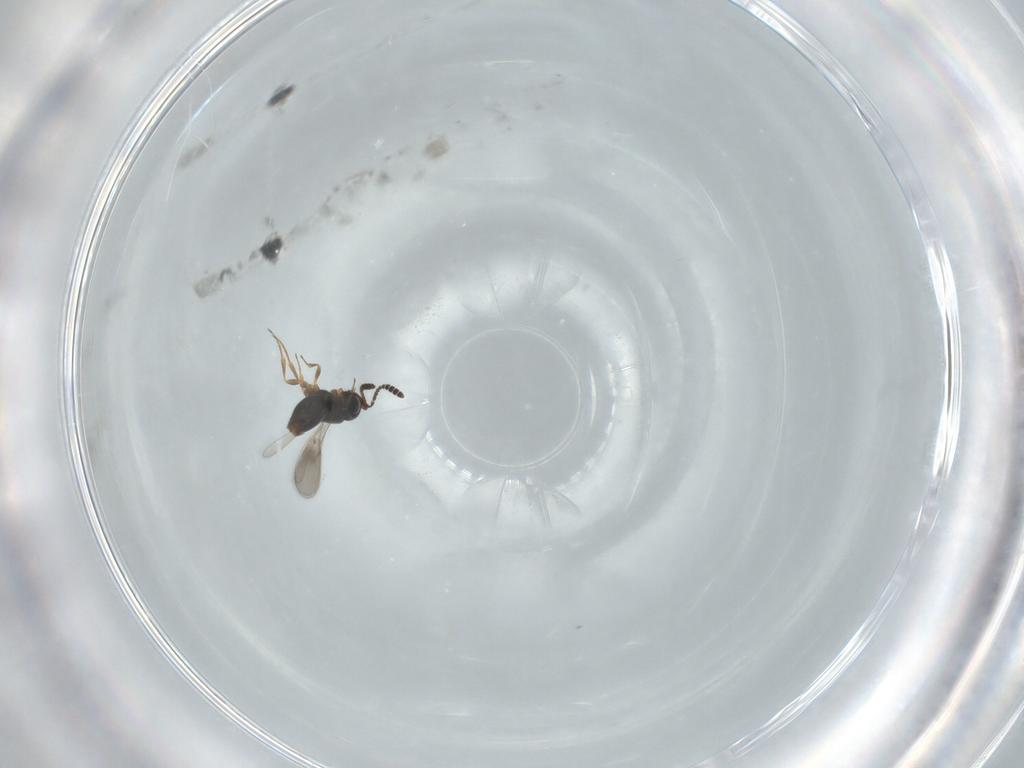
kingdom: Animalia
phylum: Arthropoda
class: Insecta
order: Hymenoptera
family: Scelionidae
